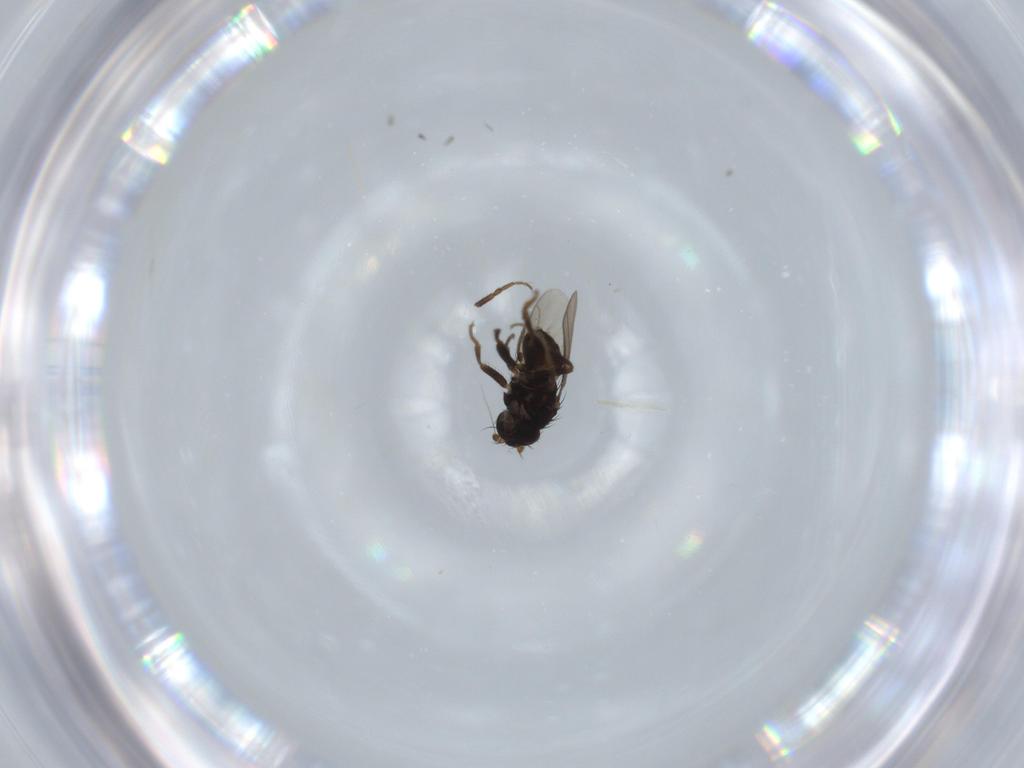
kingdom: Animalia
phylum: Arthropoda
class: Insecta
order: Diptera
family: Sphaeroceridae
